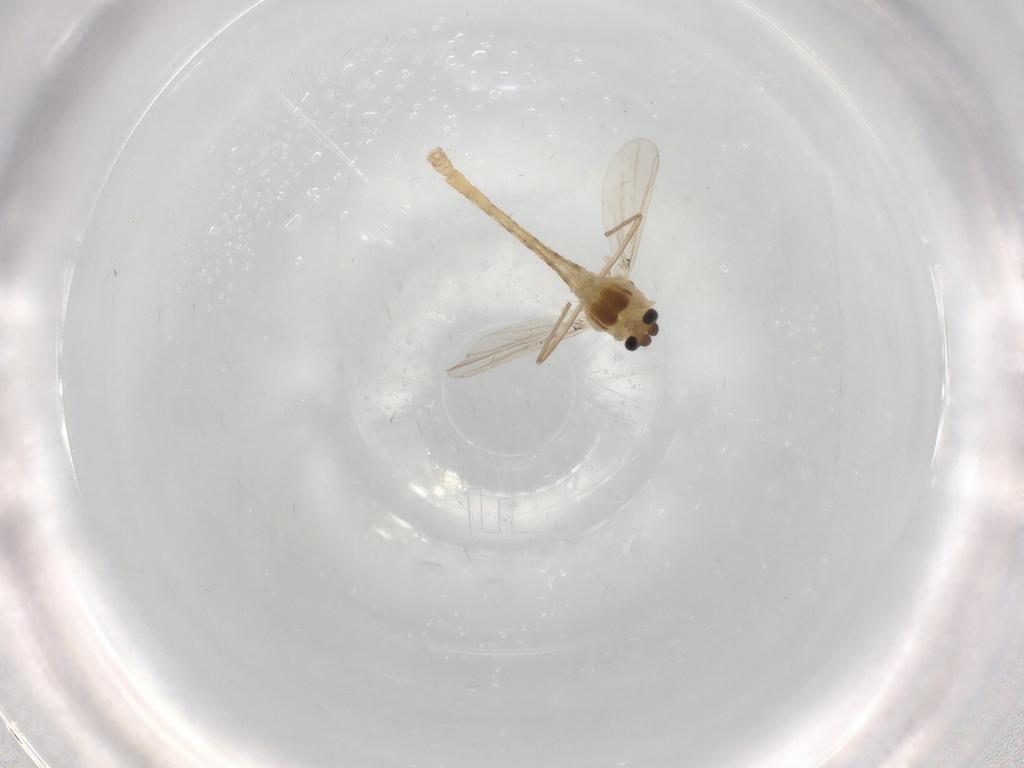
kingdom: Animalia
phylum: Arthropoda
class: Insecta
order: Diptera
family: Chironomidae
